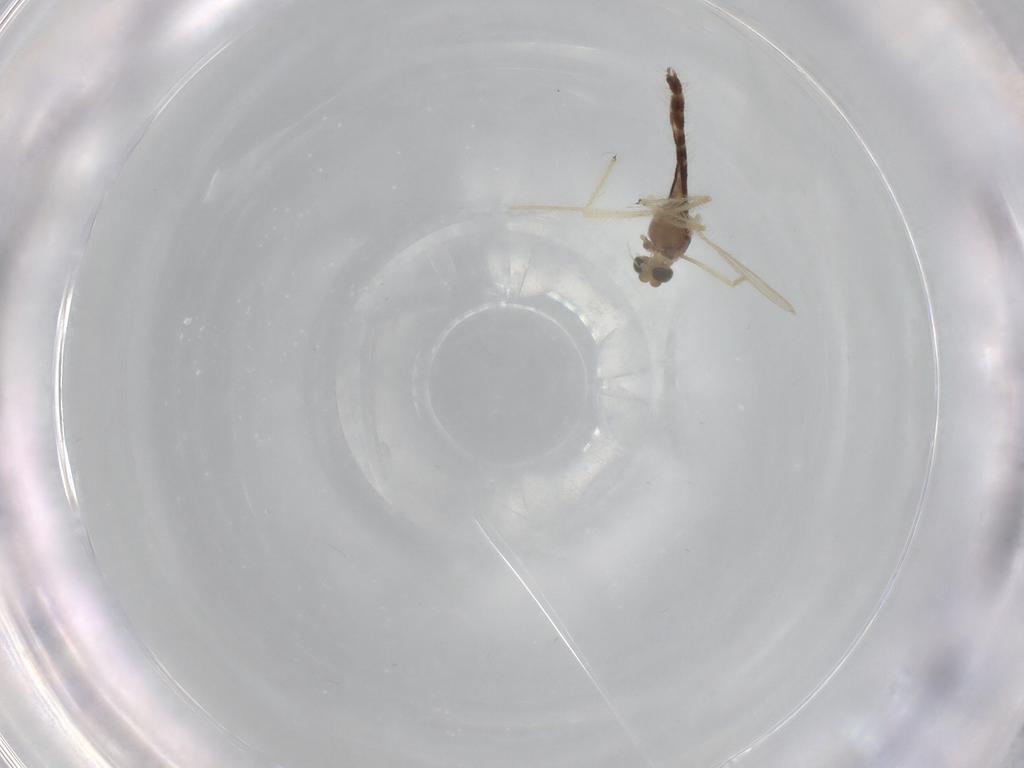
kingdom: Animalia
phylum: Arthropoda
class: Insecta
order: Diptera
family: Chironomidae
